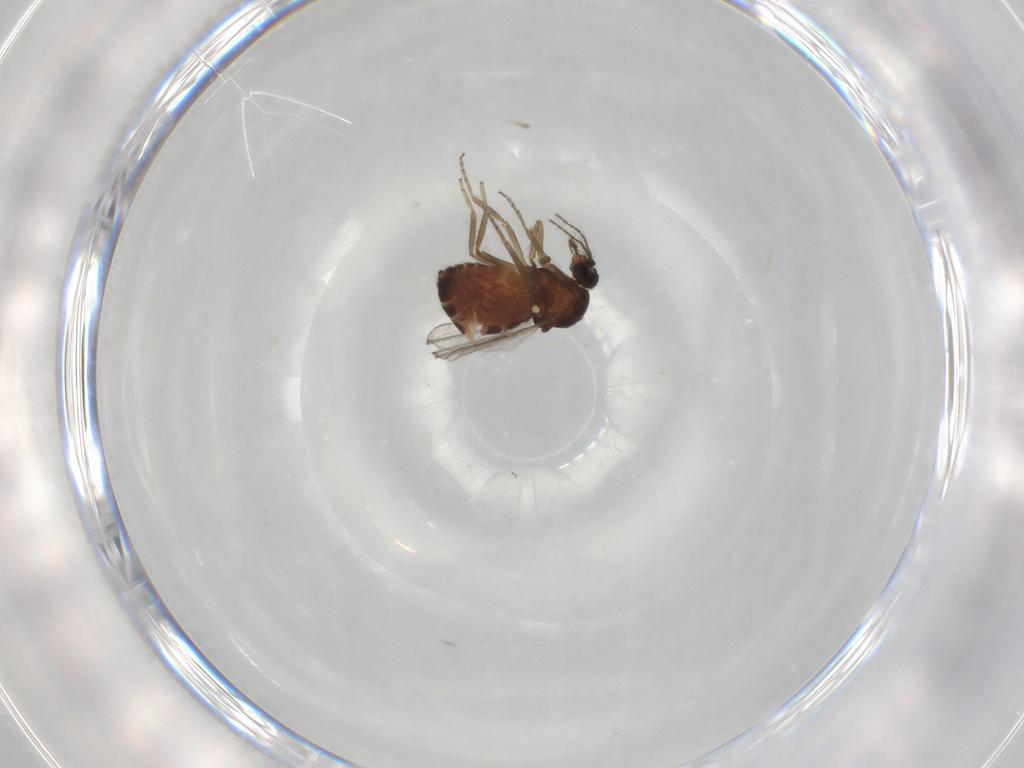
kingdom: Animalia
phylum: Arthropoda
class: Insecta
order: Diptera
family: Ceratopogonidae
